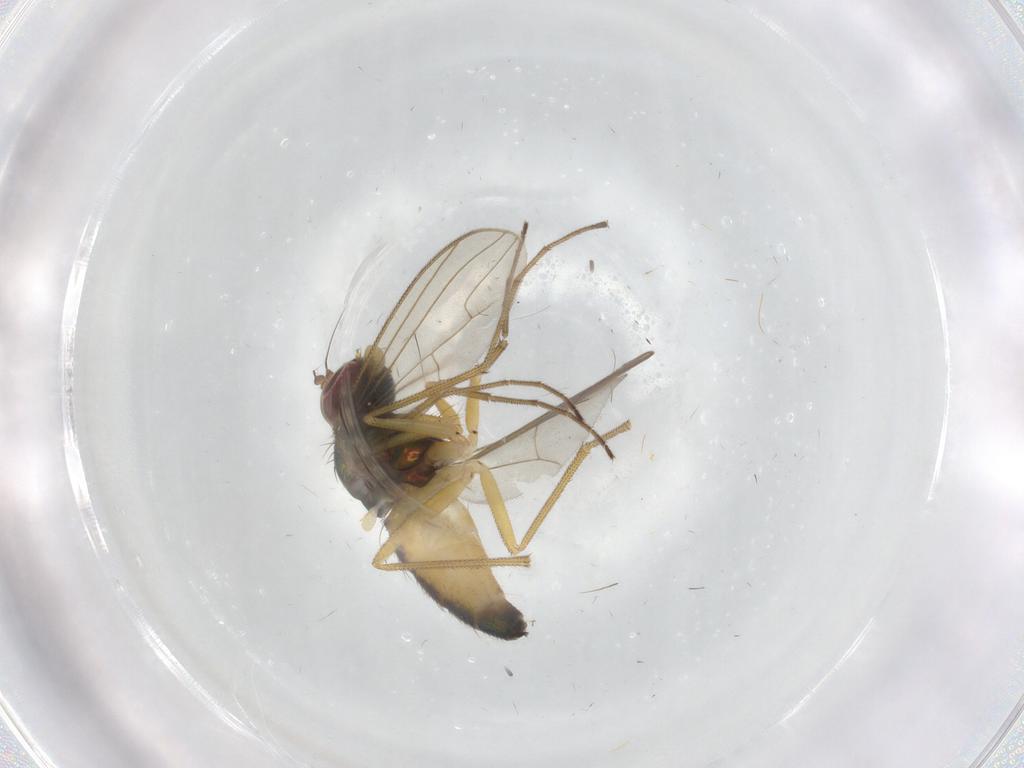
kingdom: Animalia
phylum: Arthropoda
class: Insecta
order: Diptera
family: Dolichopodidae
